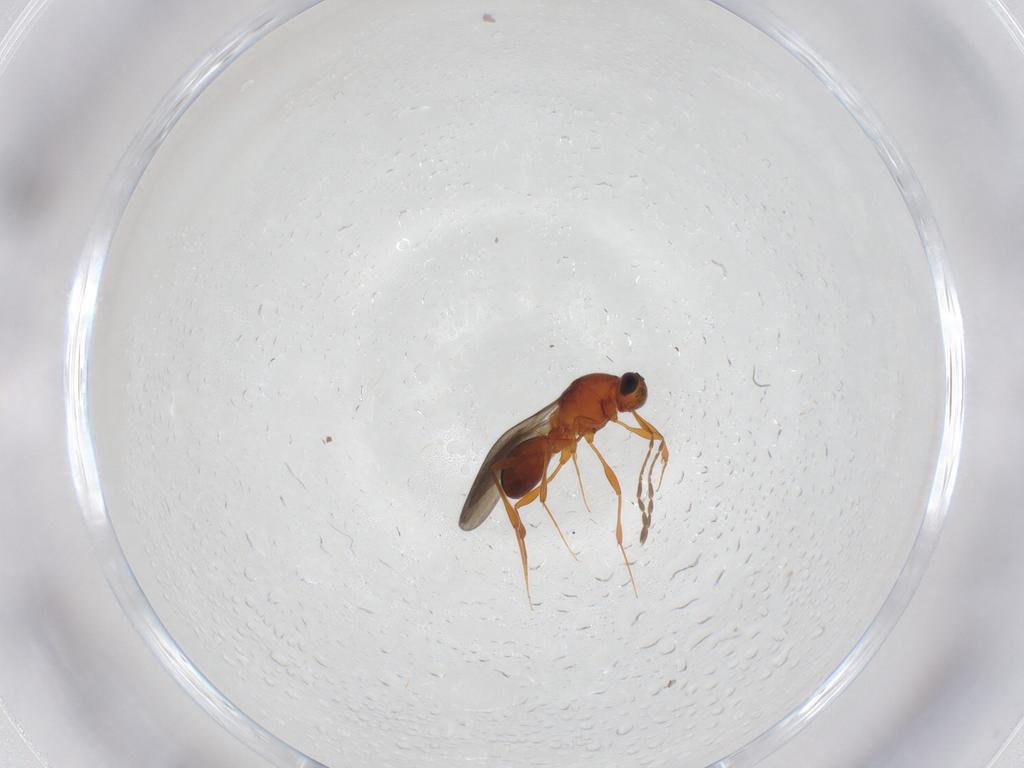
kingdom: Animalia
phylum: Arthropoda
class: Insecta
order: Hymenoptera
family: Platygastridae
